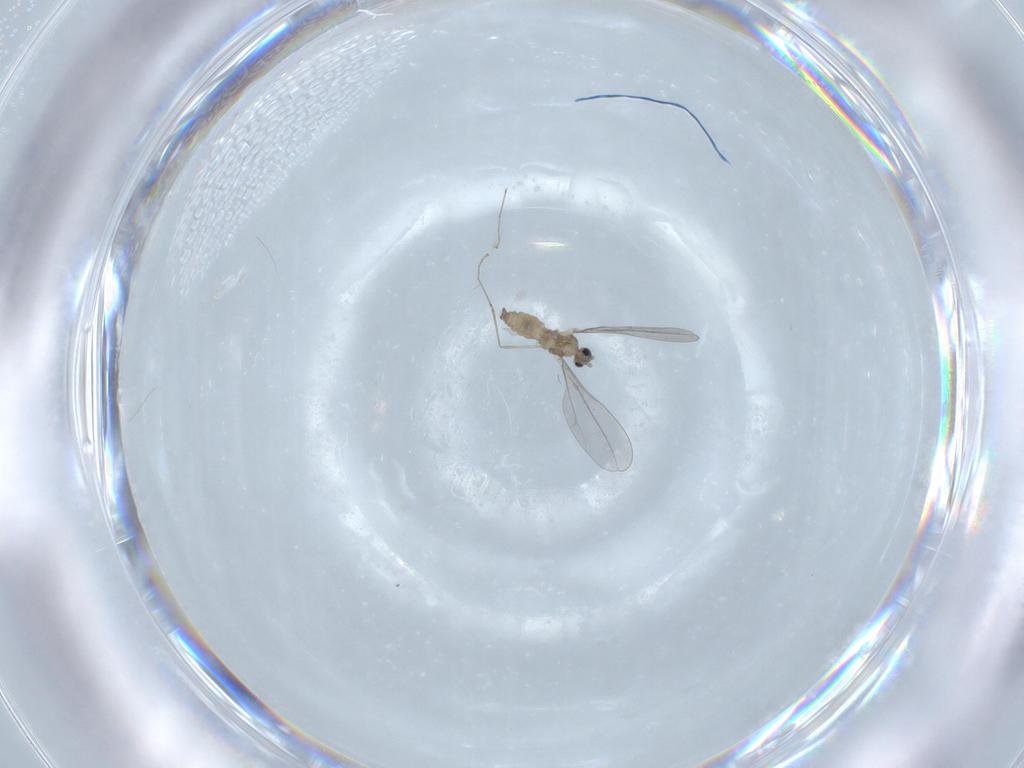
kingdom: Animalia
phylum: Arthropoda
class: Insecta
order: Diptera
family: Cecidomyiidae
